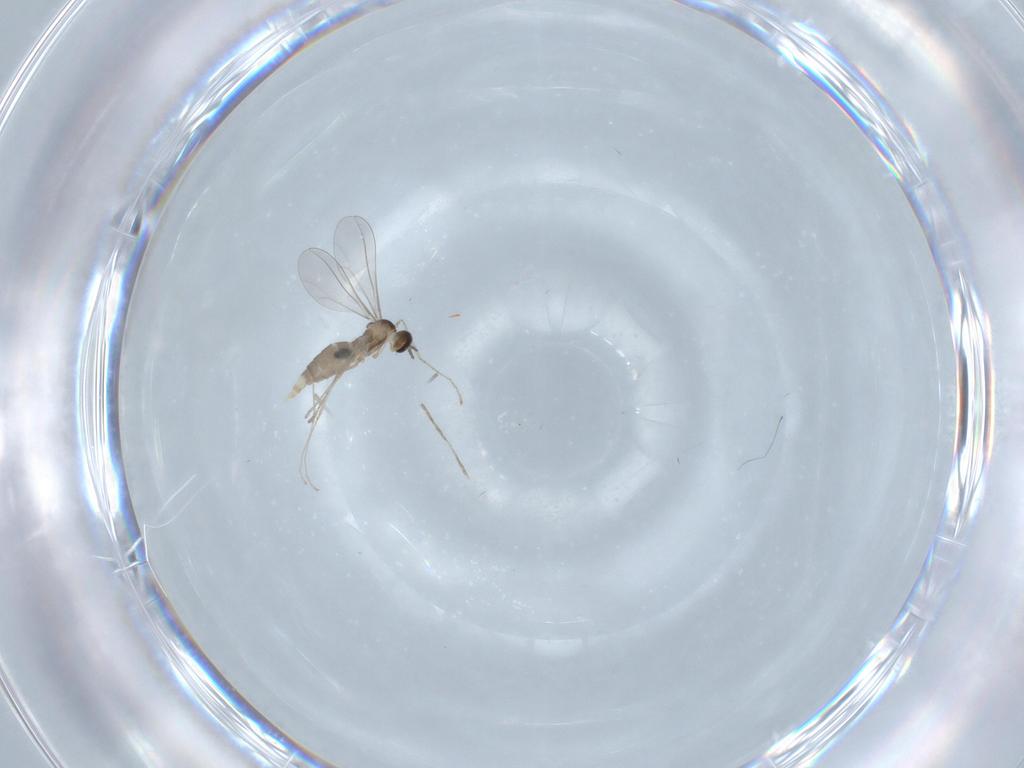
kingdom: Animalia
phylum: Arthropoda
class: Insecta
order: Diptera
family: Cecidomyiidae
